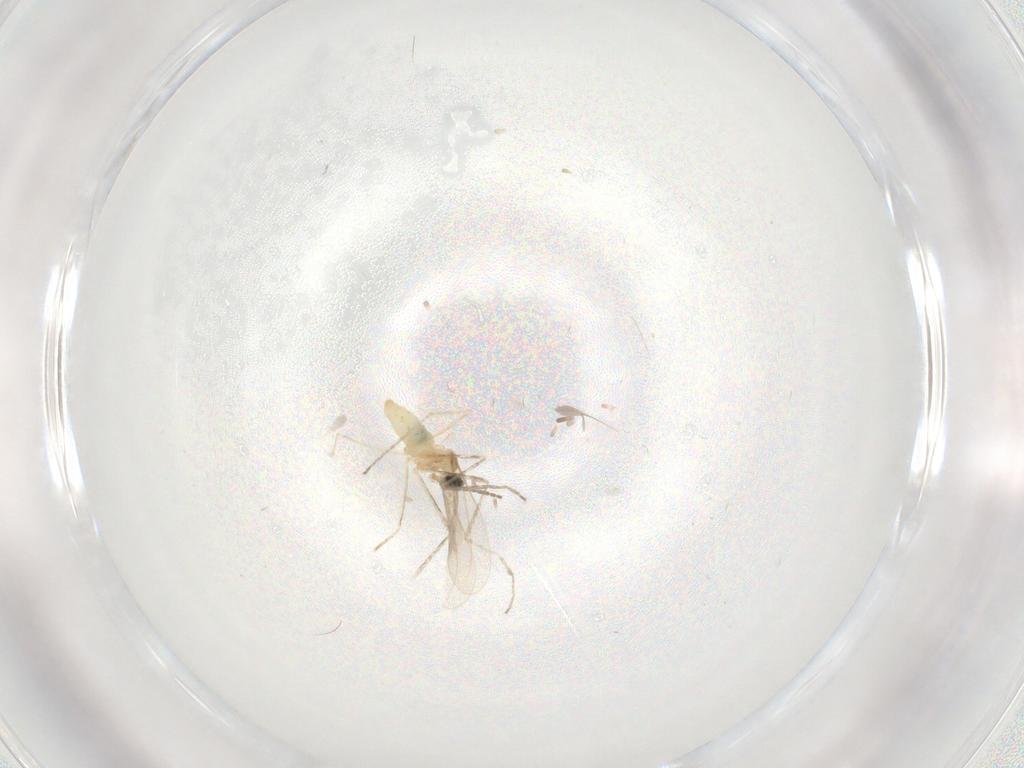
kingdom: Animalia
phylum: Arthropoda
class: Insecta
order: Diptera
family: Cecidomyiidae
